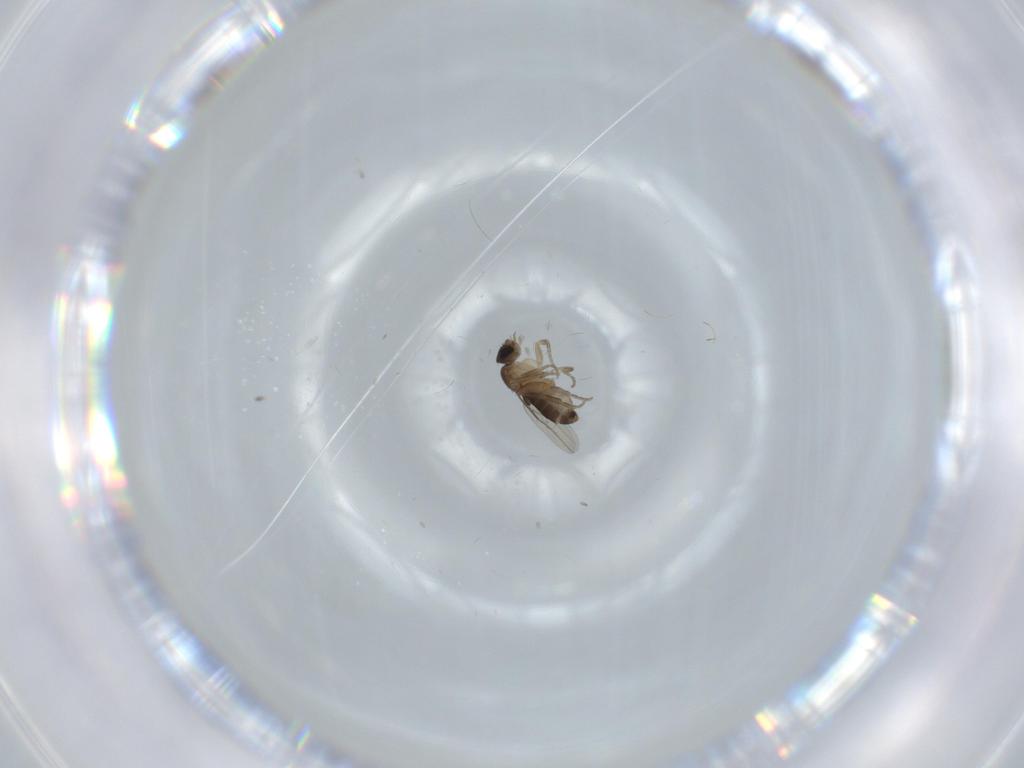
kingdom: Animalia
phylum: Arthropoda
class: Insecta
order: Diptera
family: Phoridae
